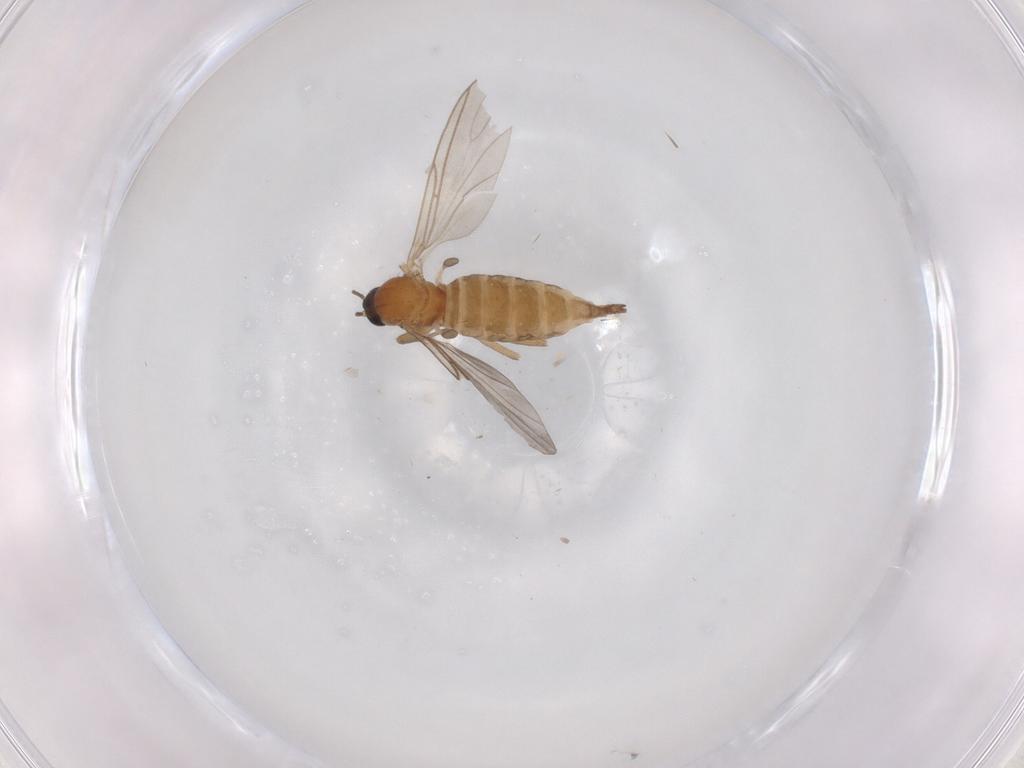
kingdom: Animalia
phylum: Arthropoda
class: Insecta
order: Diptera
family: Sciaridae
